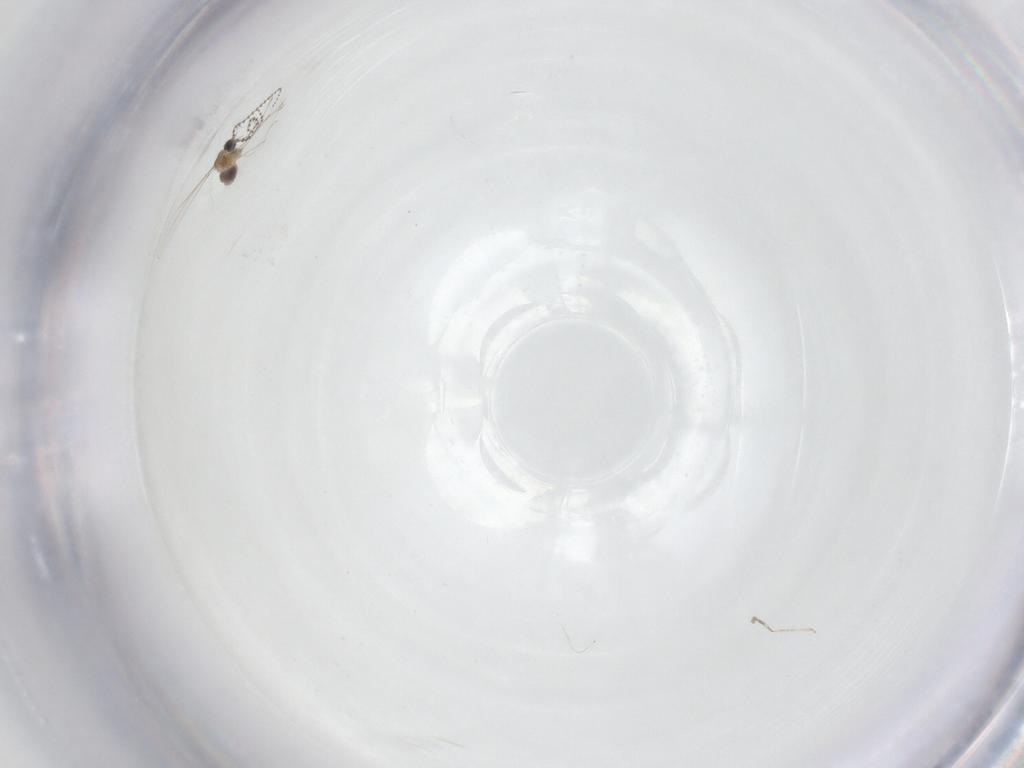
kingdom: Animalia
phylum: Arthropoda
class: Insecta
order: Diptera
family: Cecidomyiidae
